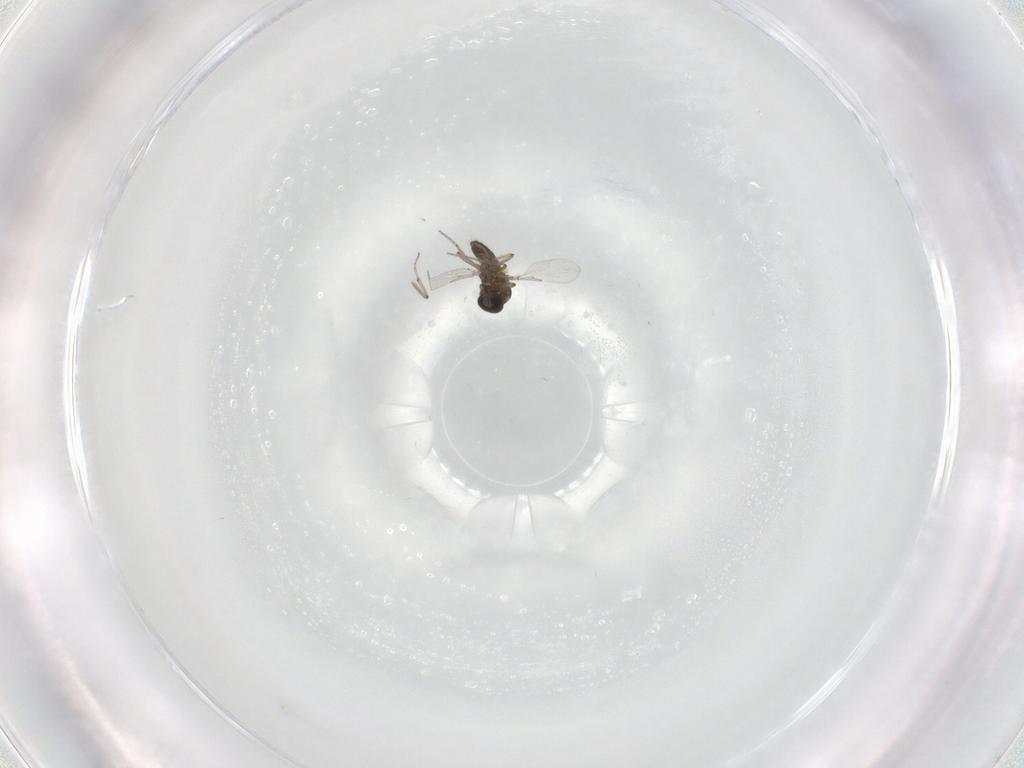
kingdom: Animalia
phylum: Arthropoda
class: Insecta
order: Diptera
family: Ceratopogonidae
